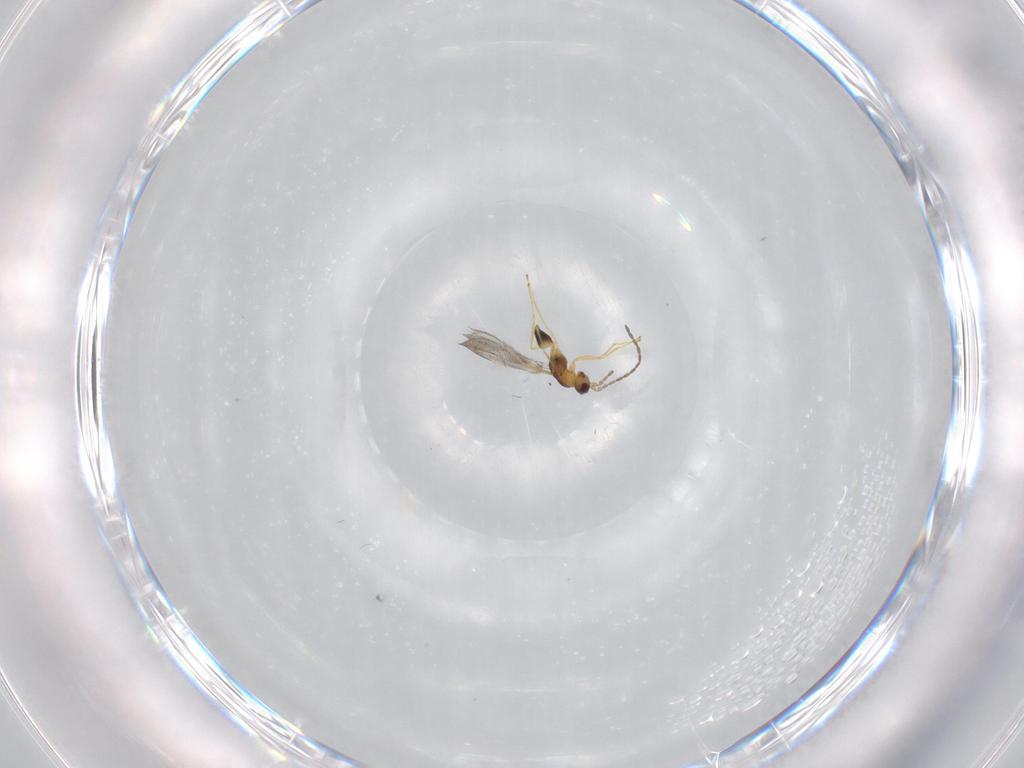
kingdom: Animalia
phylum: Arthropoda
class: Insecta
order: Hymenoptera
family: Mymaridae
